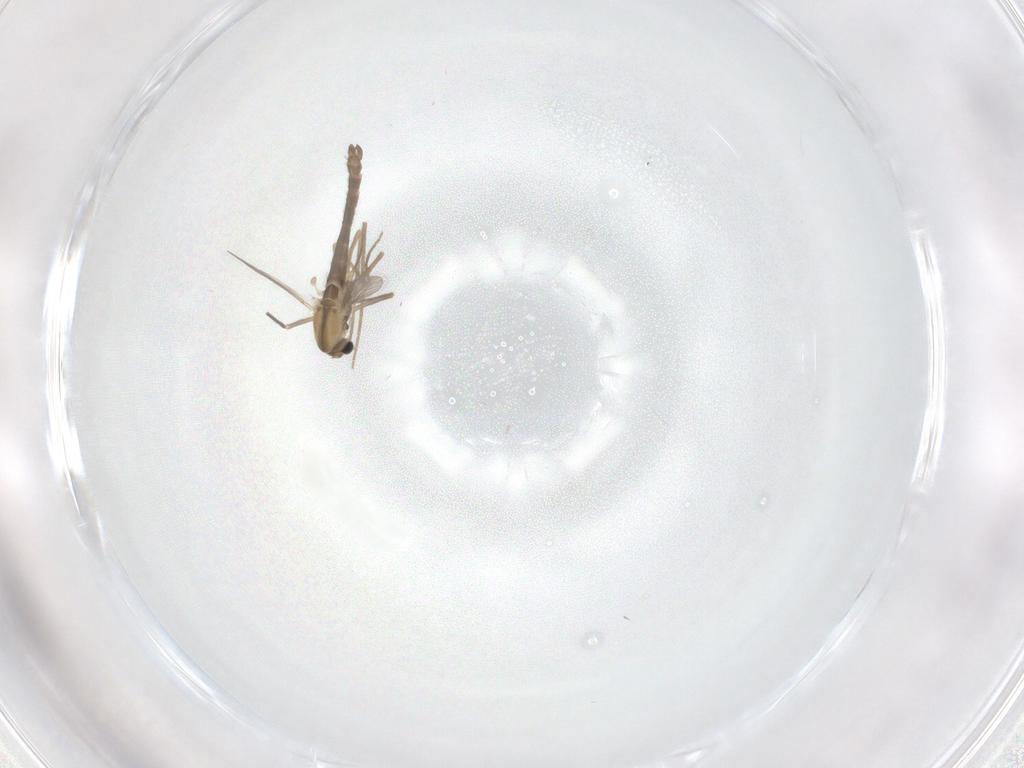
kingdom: Animalia
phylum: Arthropoda
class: Insecta
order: Diptera
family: Chironomidae
